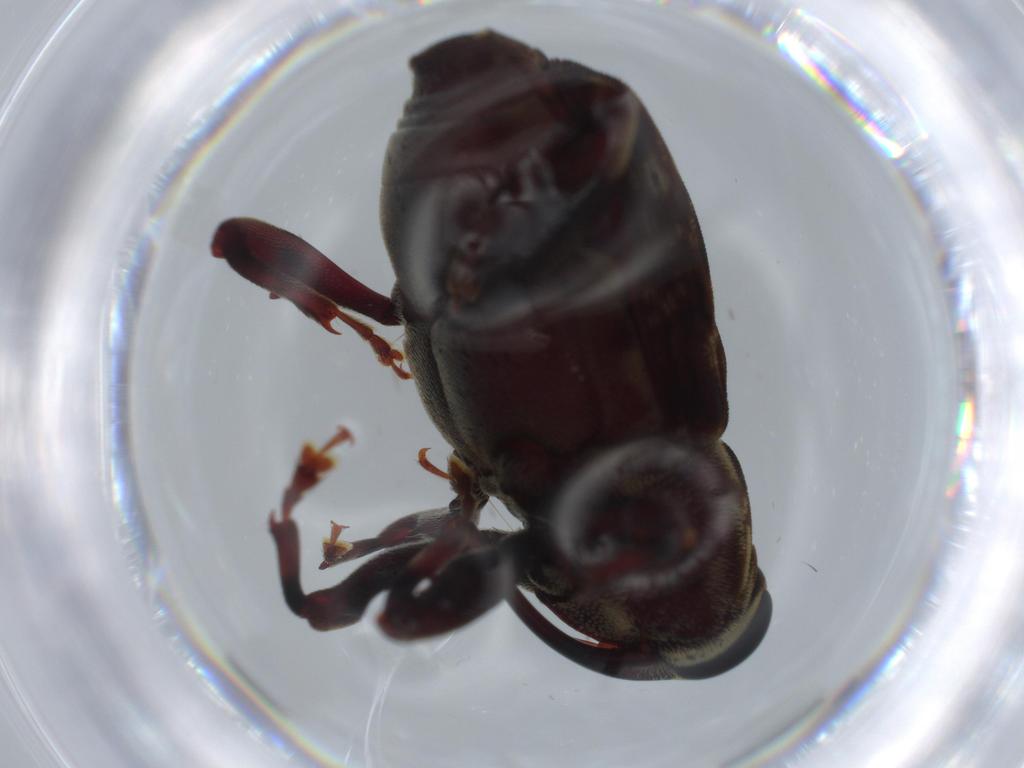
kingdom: Animalia
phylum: Arthropoda
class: Insecta
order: Coleoptera
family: Curculionidae
